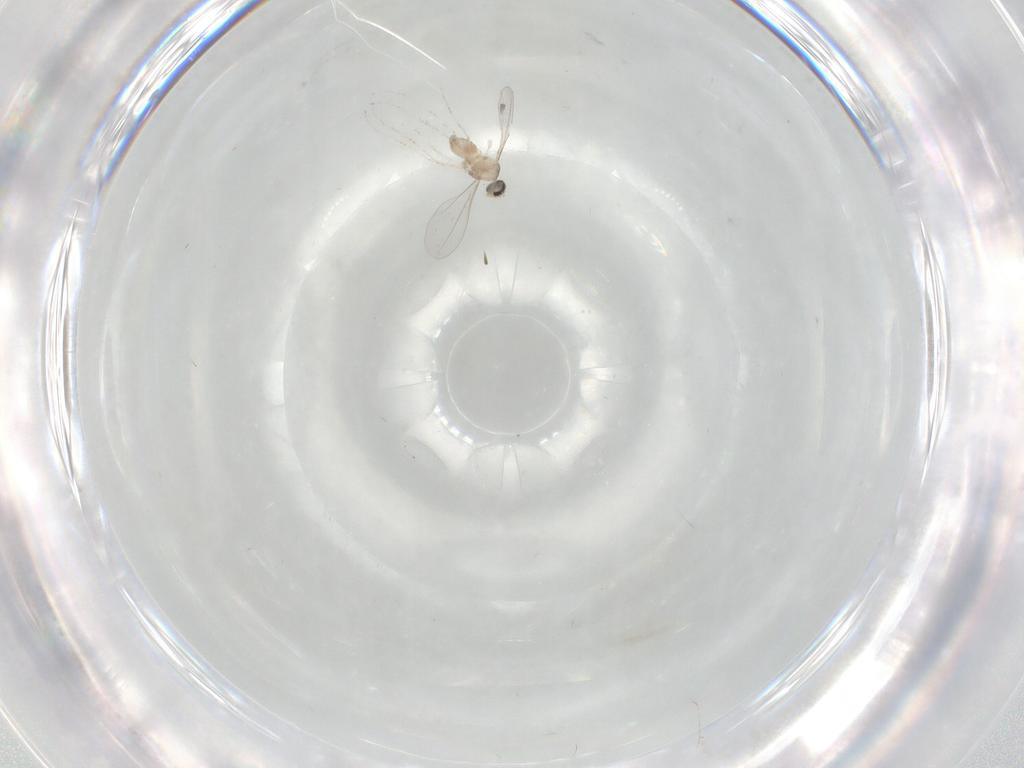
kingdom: Animalia
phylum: Arthropoda
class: Insecta
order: Diptera
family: Cecidomyiidae
